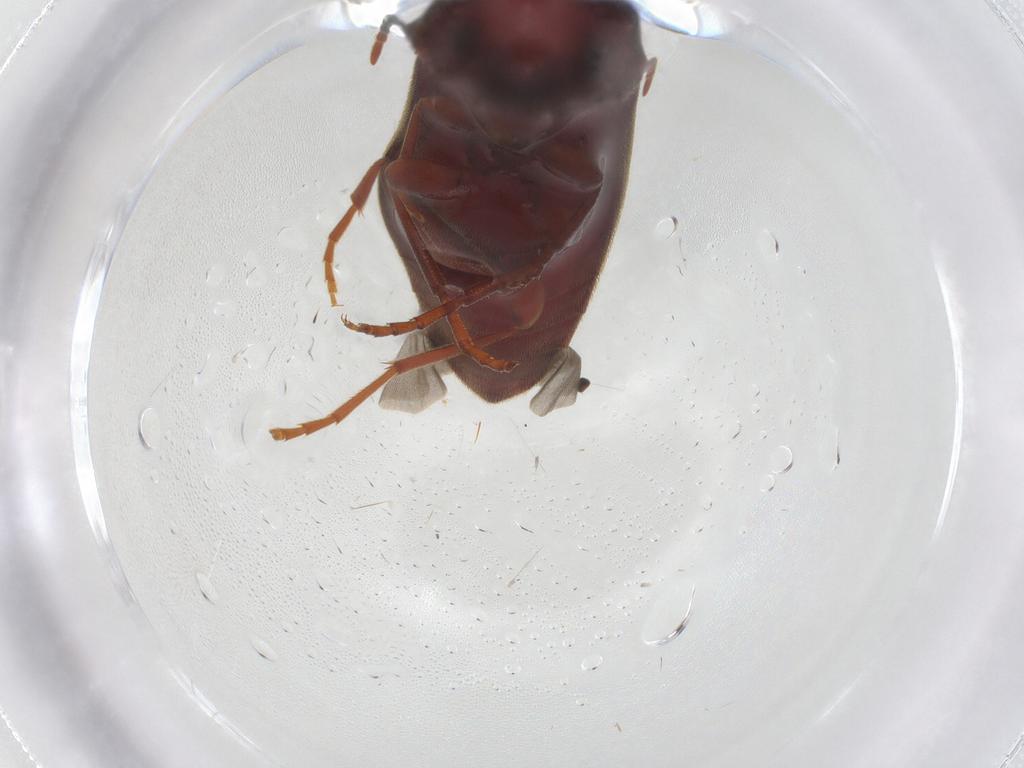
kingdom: Animalia
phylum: Arthropoda
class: Insecta
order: Coleoptera
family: Eucnemidae
